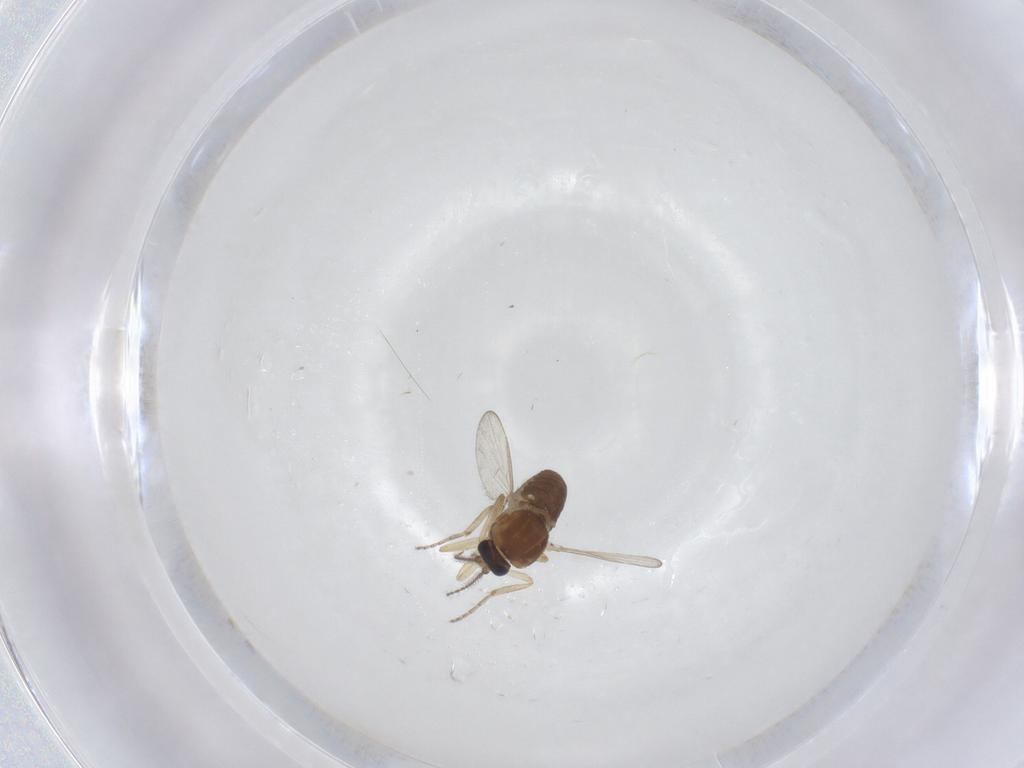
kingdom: Animalia
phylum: Arthropoda
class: Insecta
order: Diptera
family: Ceratopogonidae
